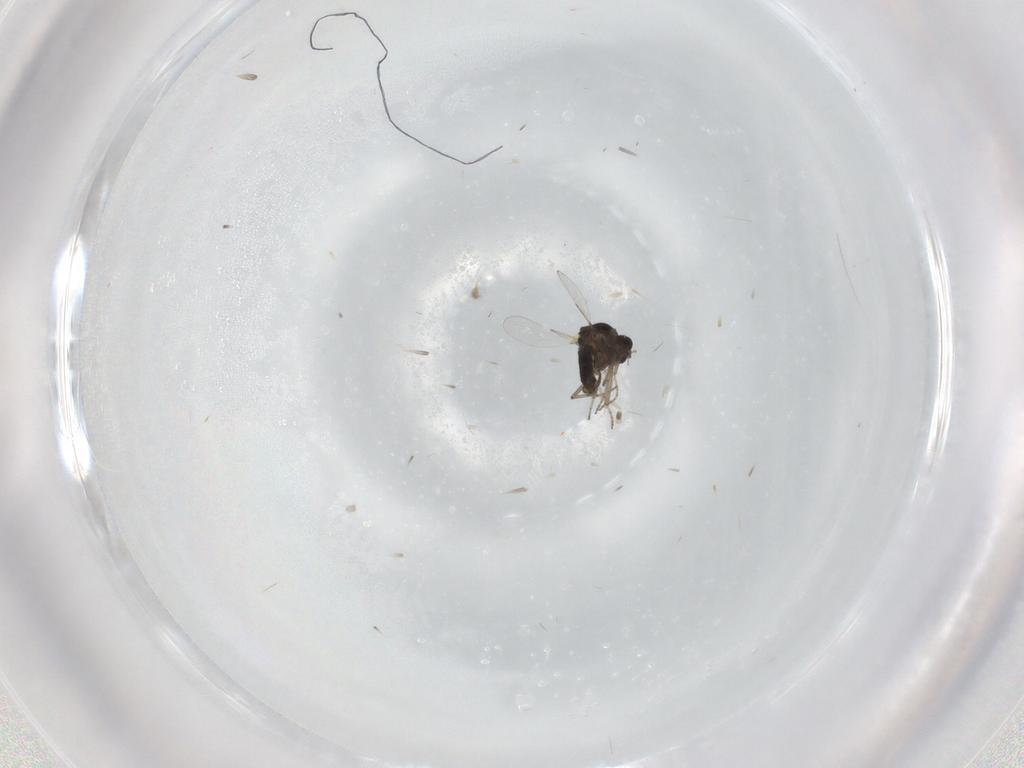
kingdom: Animalia
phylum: Arthropoda
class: Insecta
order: Diptera
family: Ceratopogonidae
